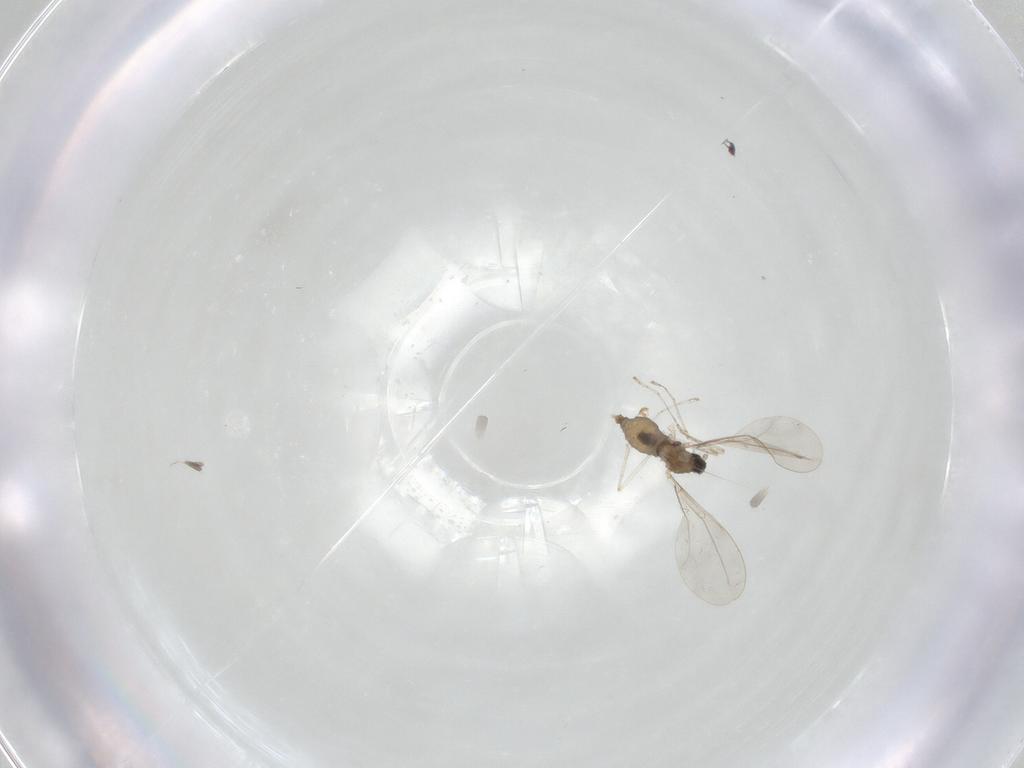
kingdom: Animalia
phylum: Arthropoda
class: Insecta
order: Diptera
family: Cecidomyiidae
